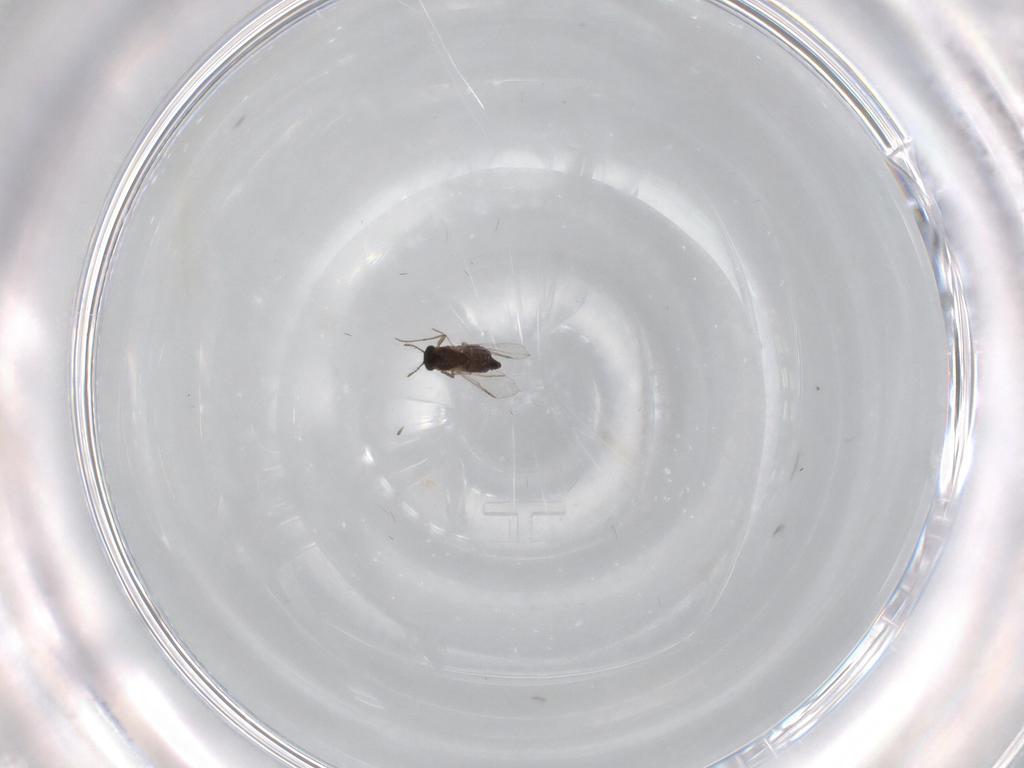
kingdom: Animalia
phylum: Arthropoda
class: Insecta
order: Diptera
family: Chironomidae
